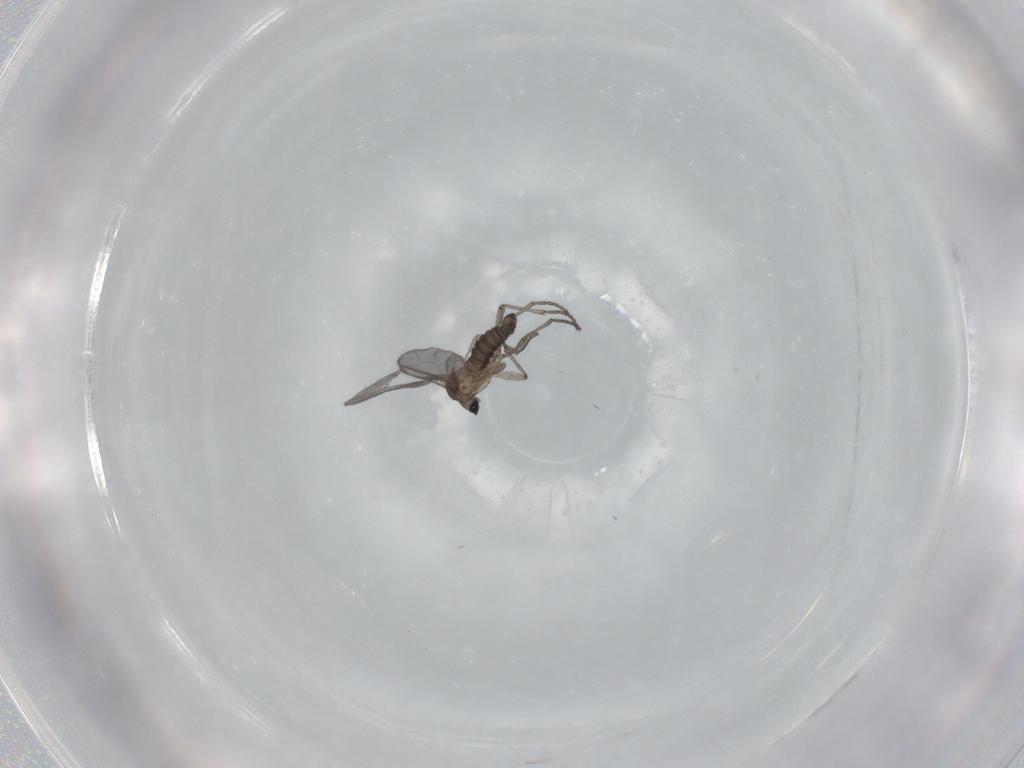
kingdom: Animalia
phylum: Arthropoda
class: Insecta
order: Diptera
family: Sciaridae
